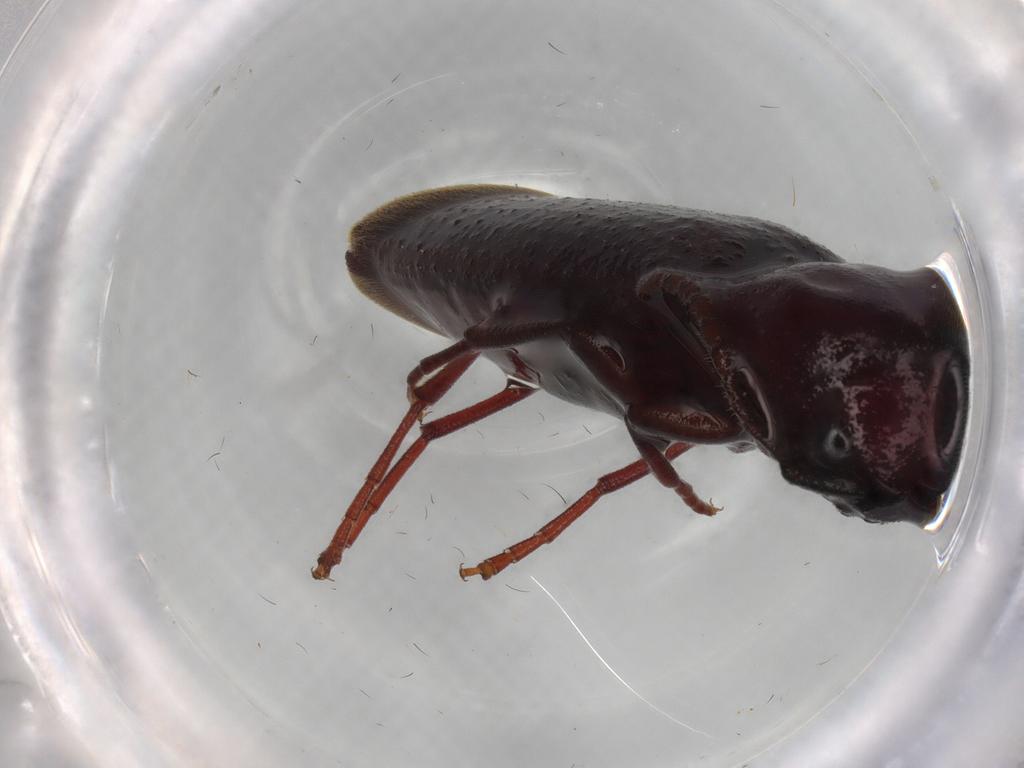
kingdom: Animalia
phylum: Arthropoda
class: Insecta
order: Coleoptera
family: Eucnemidae
